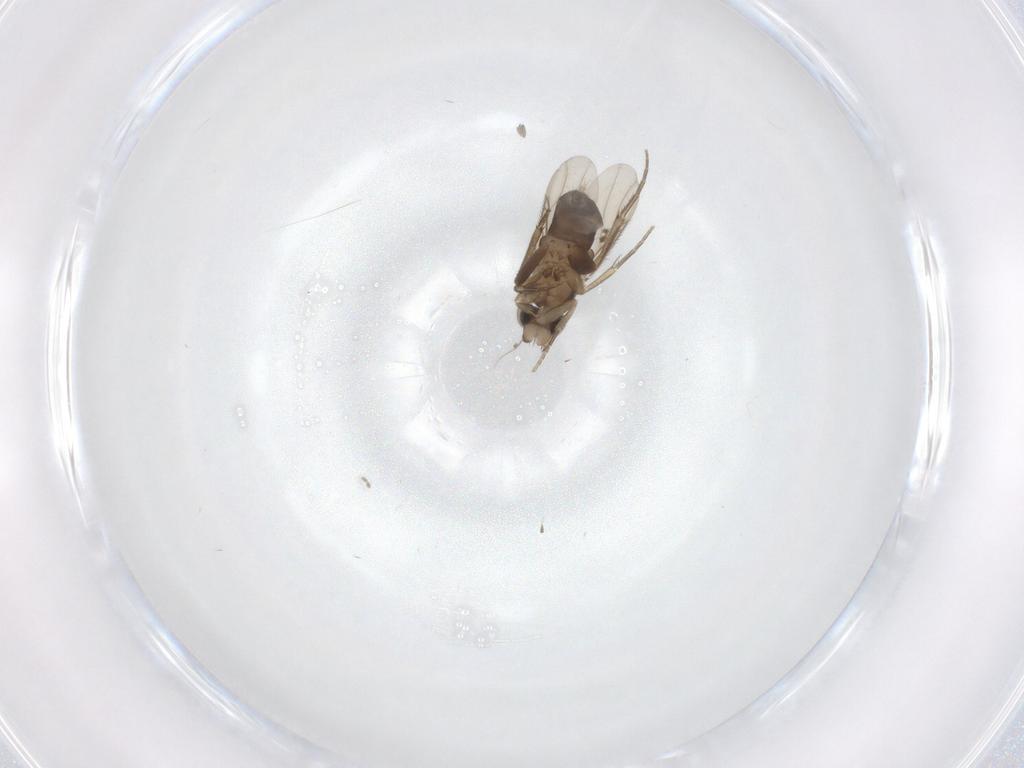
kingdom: Animalia
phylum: Arthropoda
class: Insecta
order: Diptera
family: Phoridae
